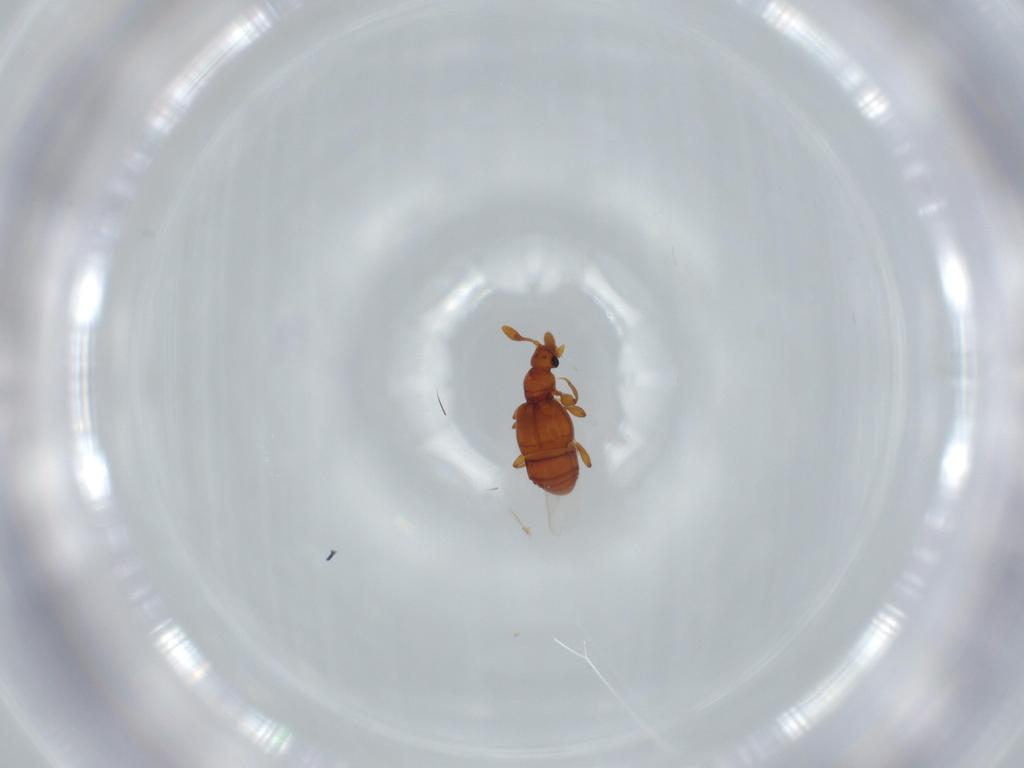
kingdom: Animalia
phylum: Arthropoda
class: Insecta
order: Coleoptera
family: Staphylinidae
